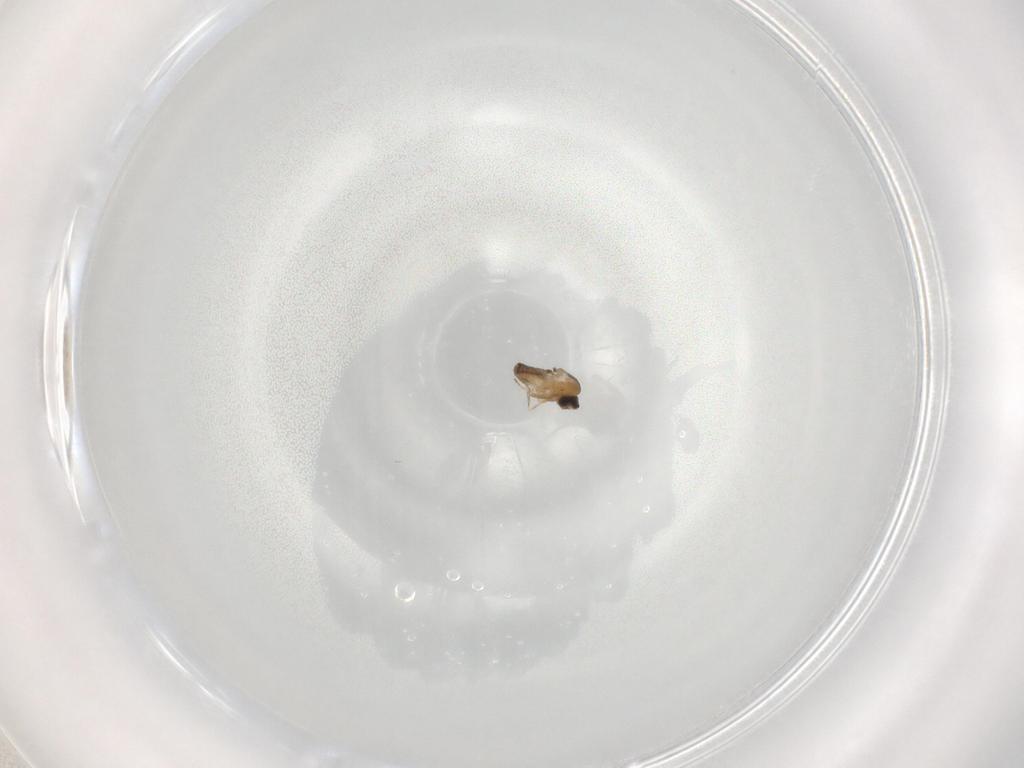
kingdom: Animalia
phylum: Arthropoda
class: Insecta
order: Diptera
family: Cecidomyiidae
